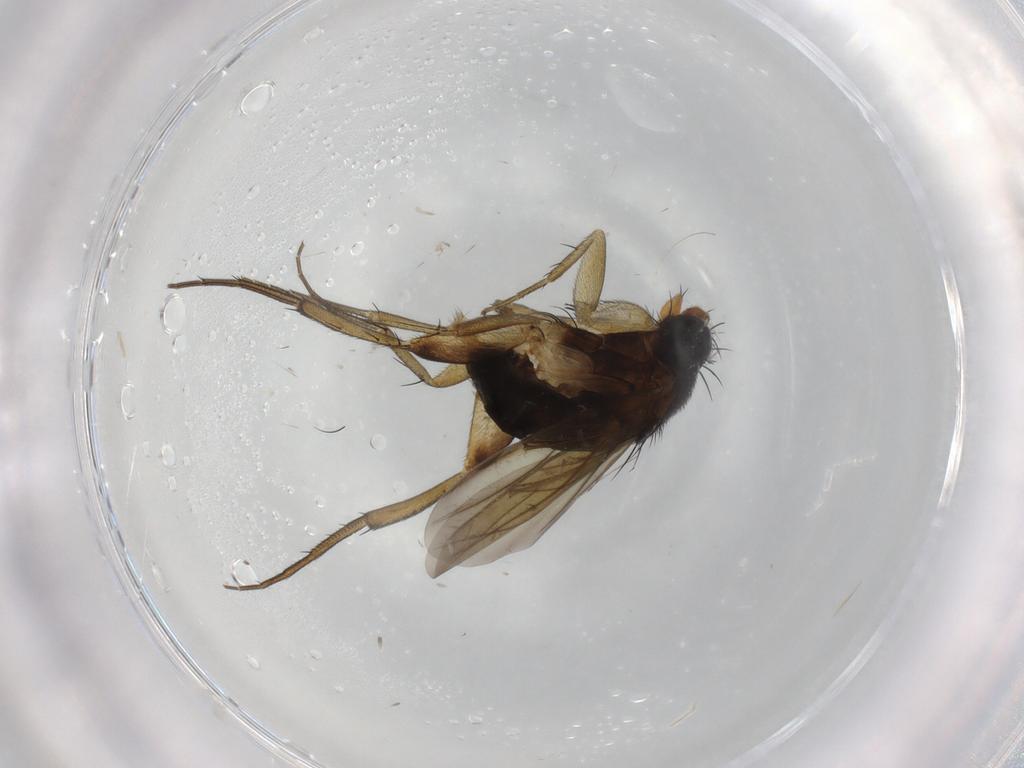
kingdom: Animalia
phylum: Arthropoda
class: Insecta
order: Diptera
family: Phoridae
